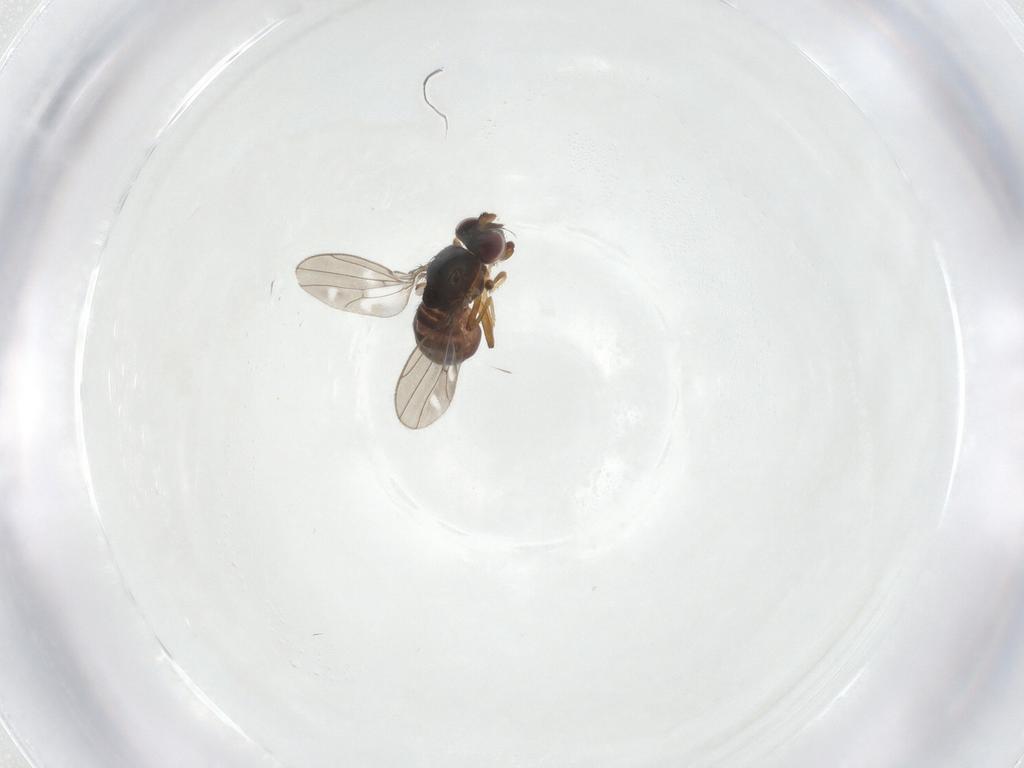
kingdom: Animalia
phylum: Arthropoda
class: Insecta
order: Diptera
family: Ephydridae
